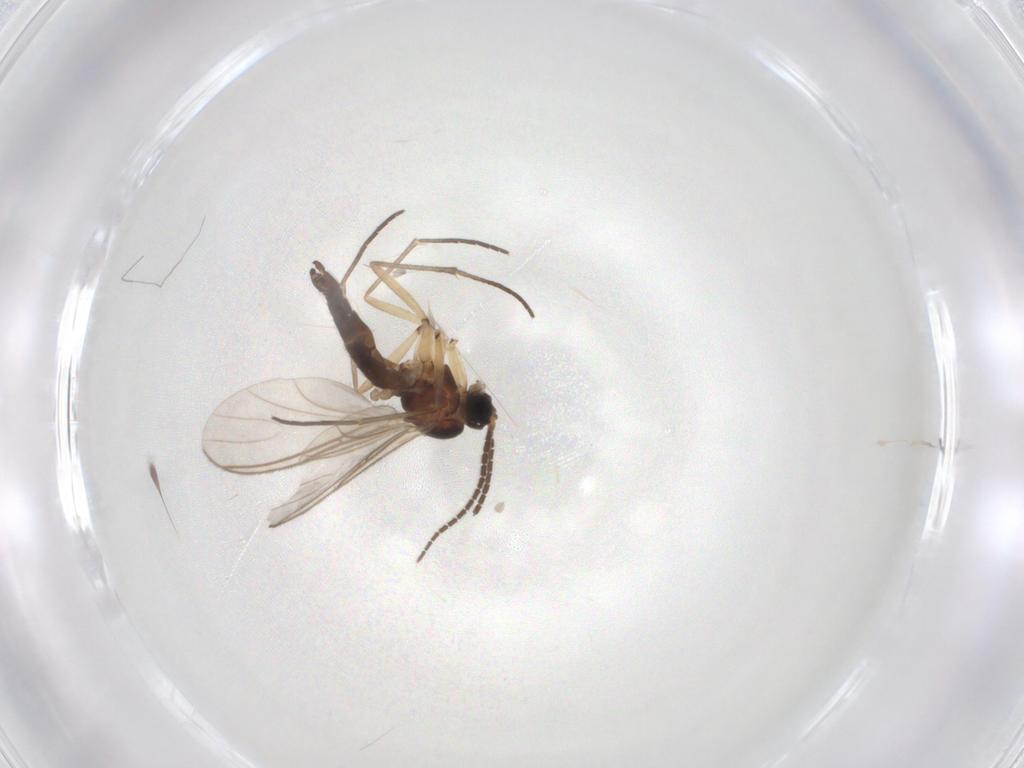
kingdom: Animalia
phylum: Arthropoda
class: Insecta
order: Diptera
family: Sciaridae
